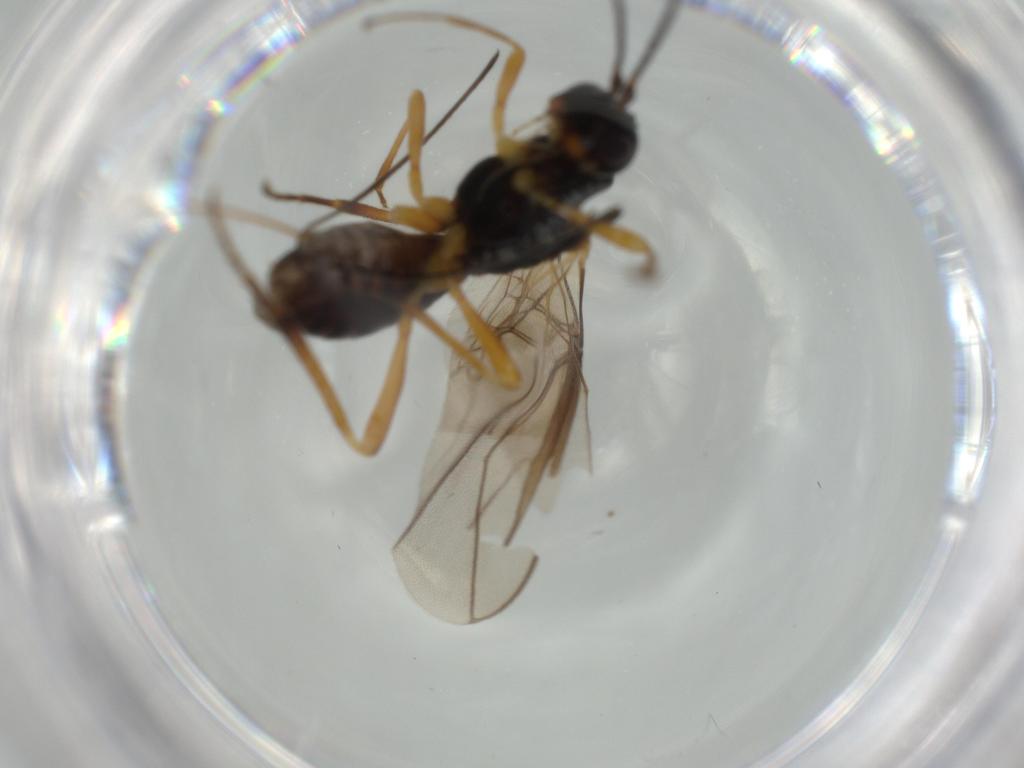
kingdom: Animalia
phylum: Arthropoda
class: Insecta
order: Hymenoptera
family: Braconidae
